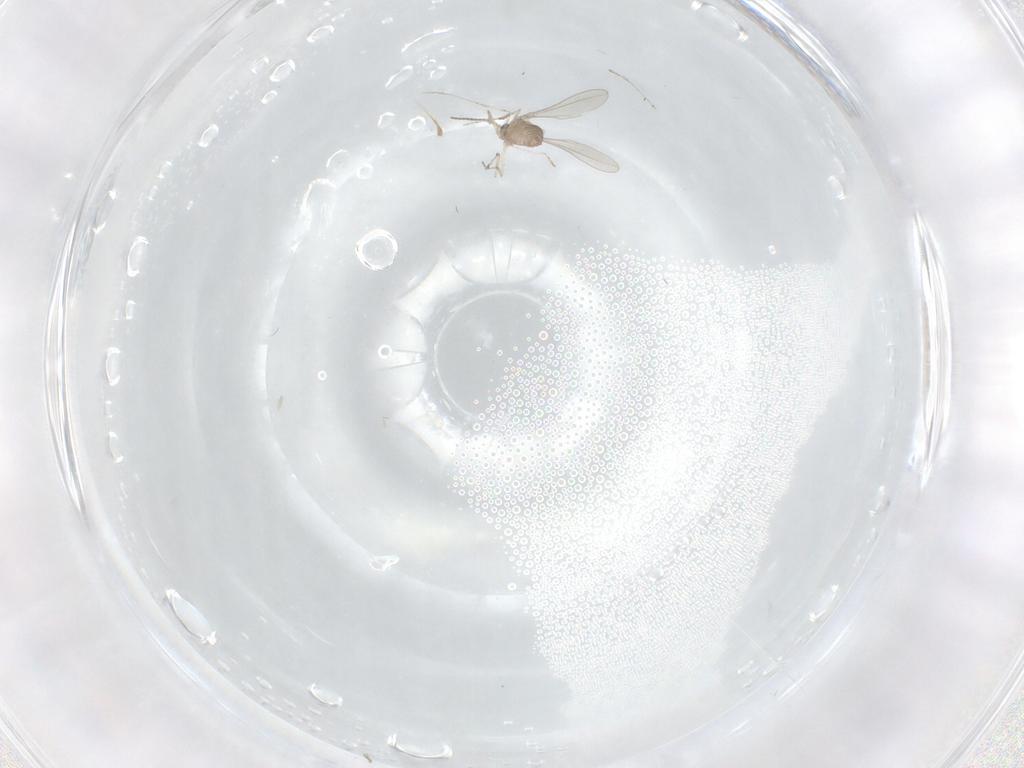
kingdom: Animalia
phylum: Arthropoda
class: Insecta
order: Diptera
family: Cecidomyiidae
